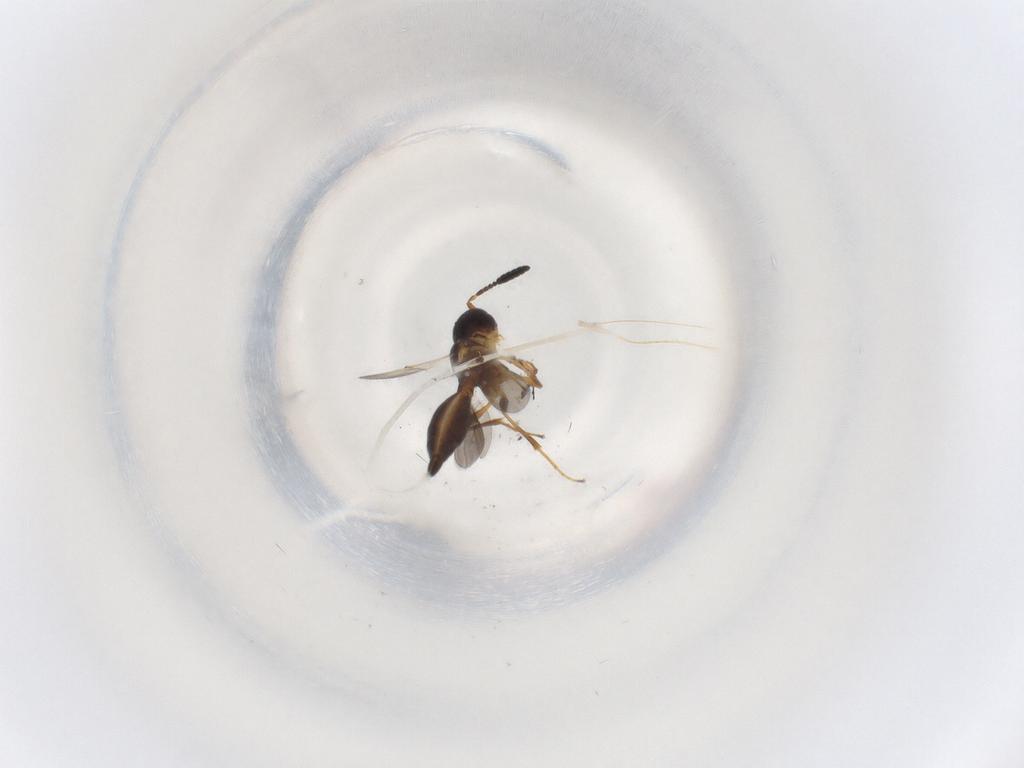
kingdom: Animalia
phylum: Arthropoda
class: Insecta
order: Hymenoptera
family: Scelionidae
